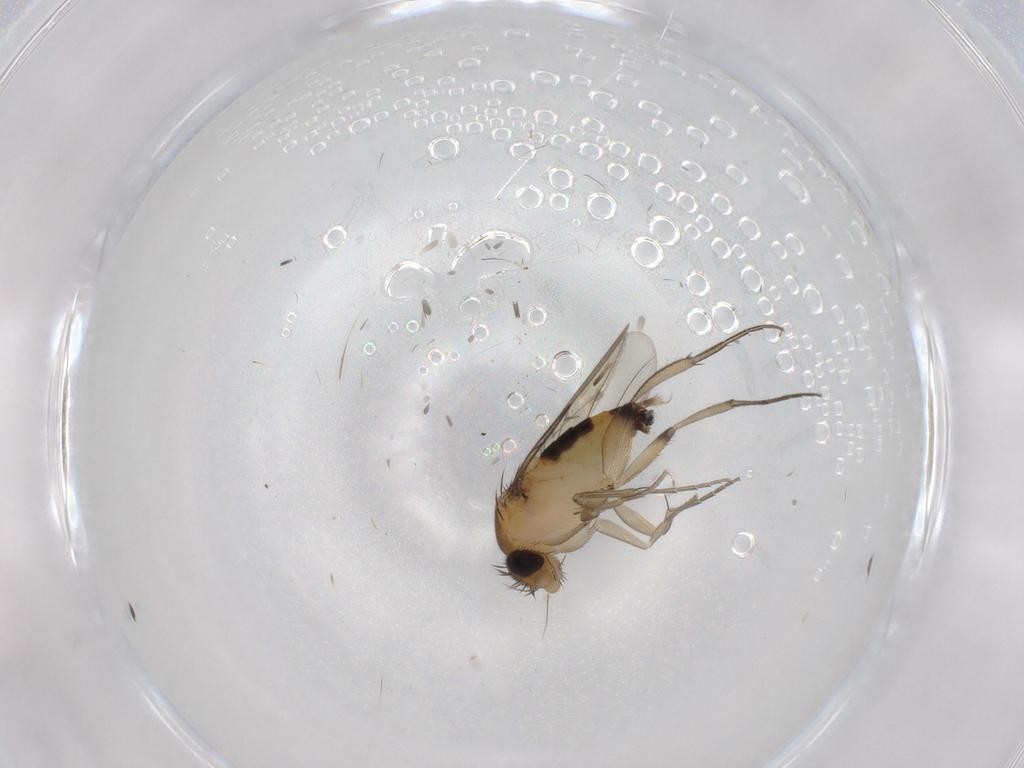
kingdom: Animalia
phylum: Arthropoda
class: Insecta
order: Diptera
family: Phoridae
